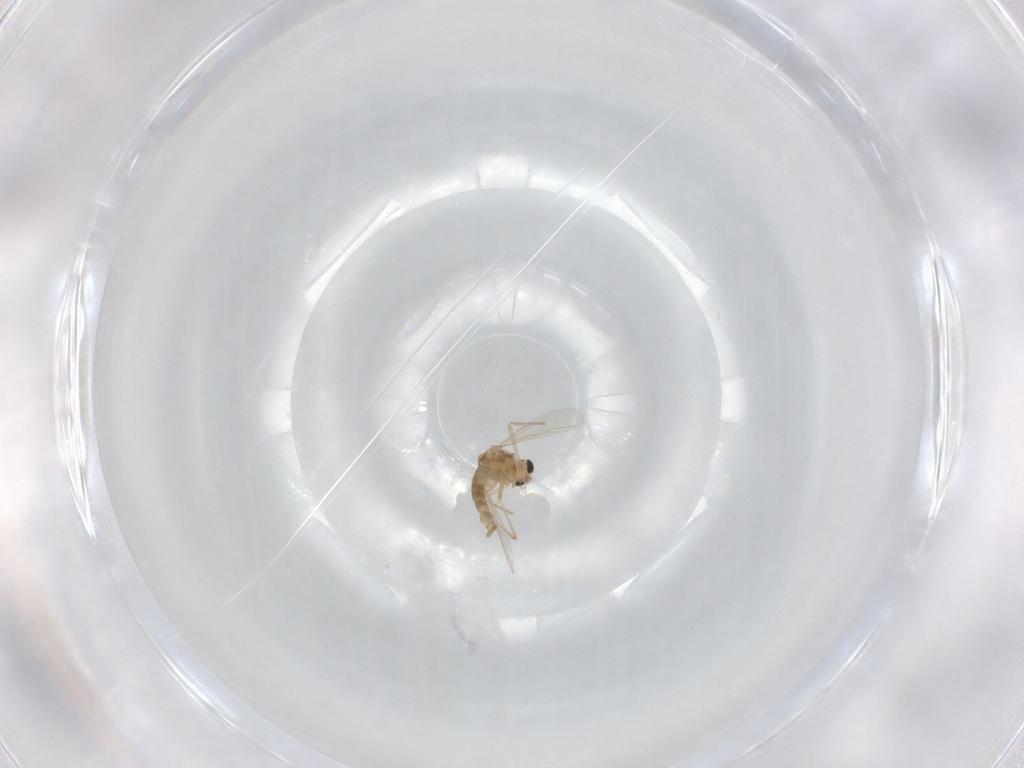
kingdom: Animalia
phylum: Arthropoda
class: Insecta
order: Diptera
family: Chironomidae
